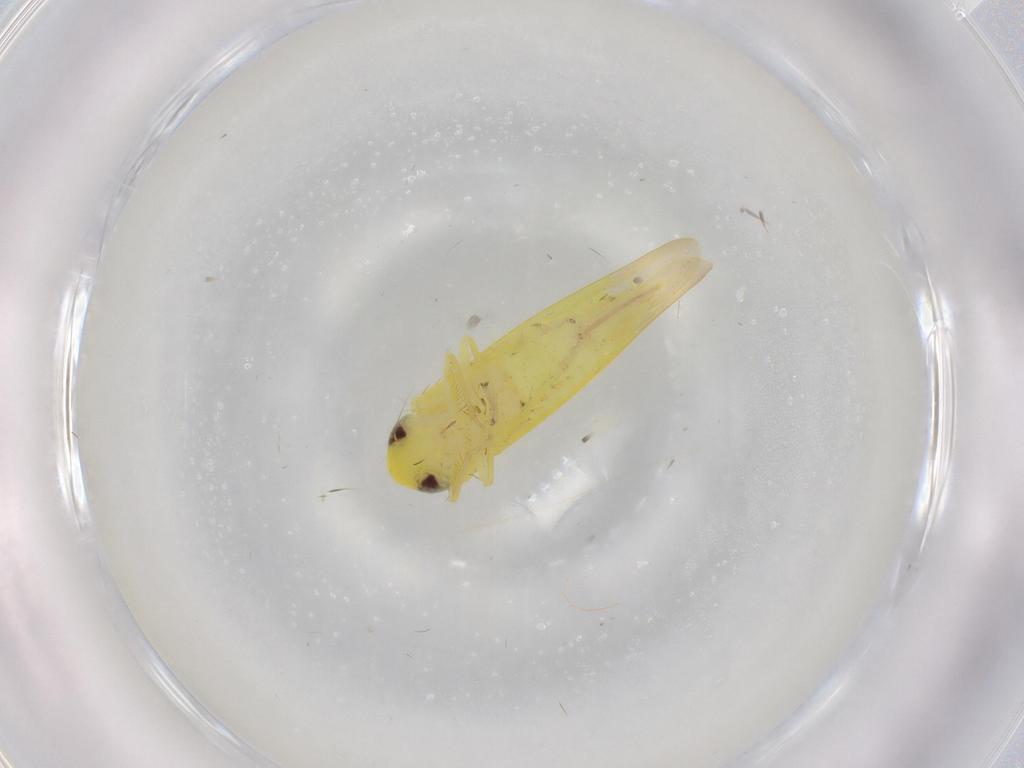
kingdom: Animalia
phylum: Arthropoda
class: Insecta
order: Hemiptera
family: Cicadellidae
